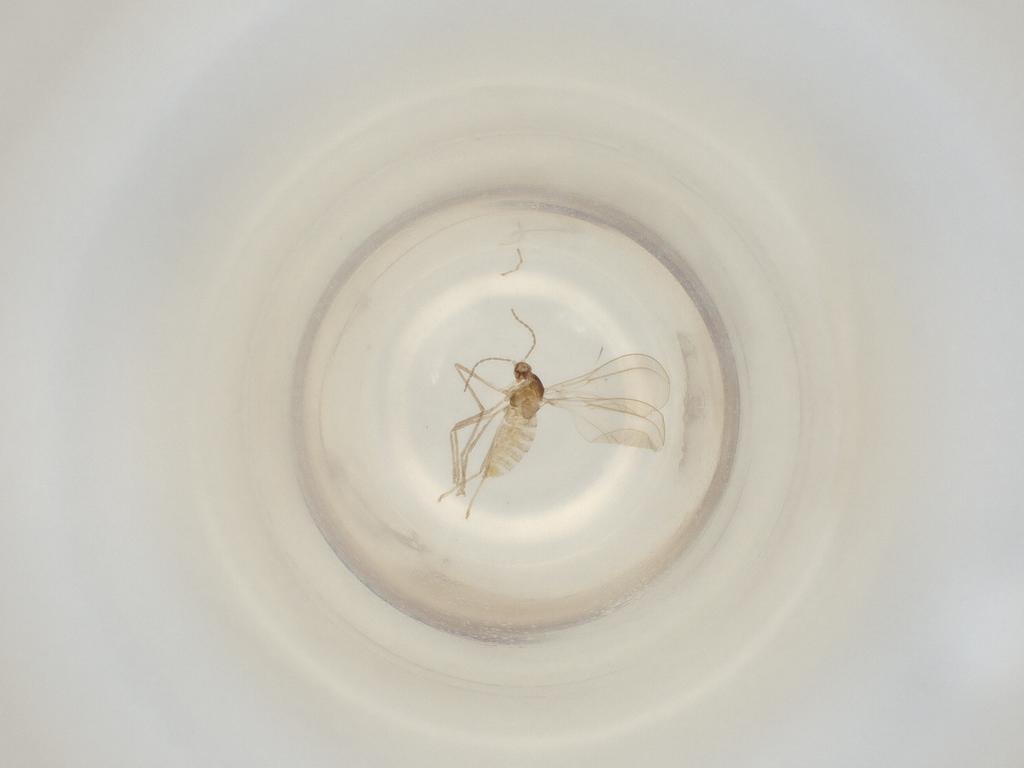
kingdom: Animalia
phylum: Arthropoda
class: Insecta
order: Diptera
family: Cecidomyiidae
